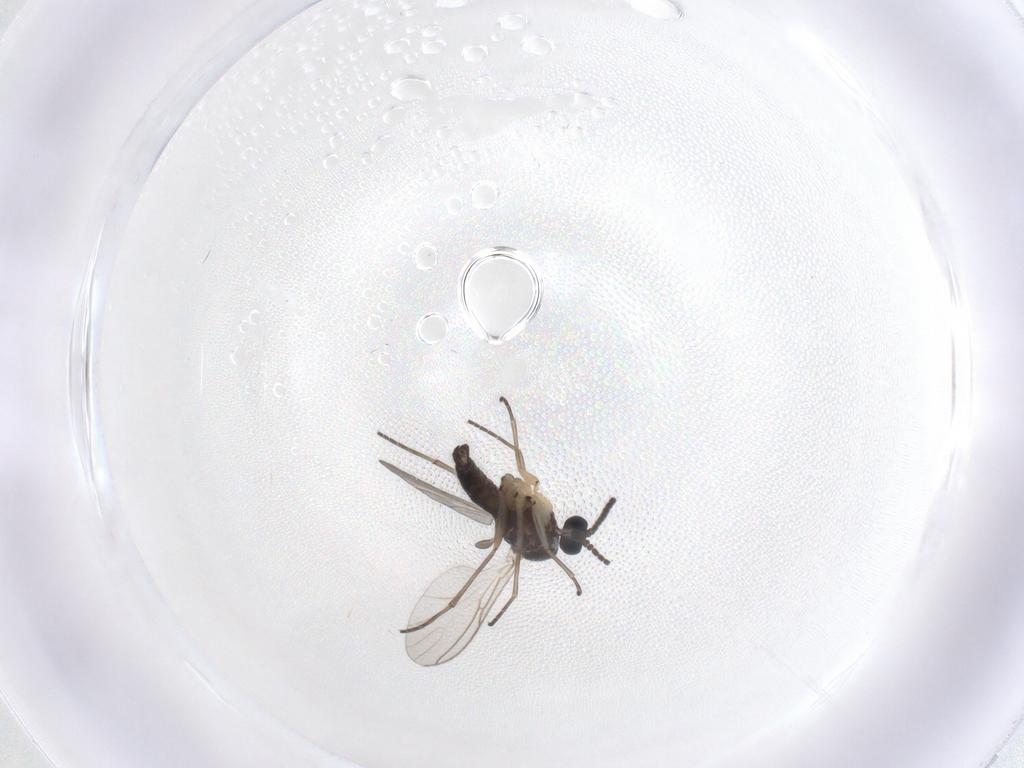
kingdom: Animalia
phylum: Arthropoda
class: Insecta
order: Diptera
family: Sciaridae
